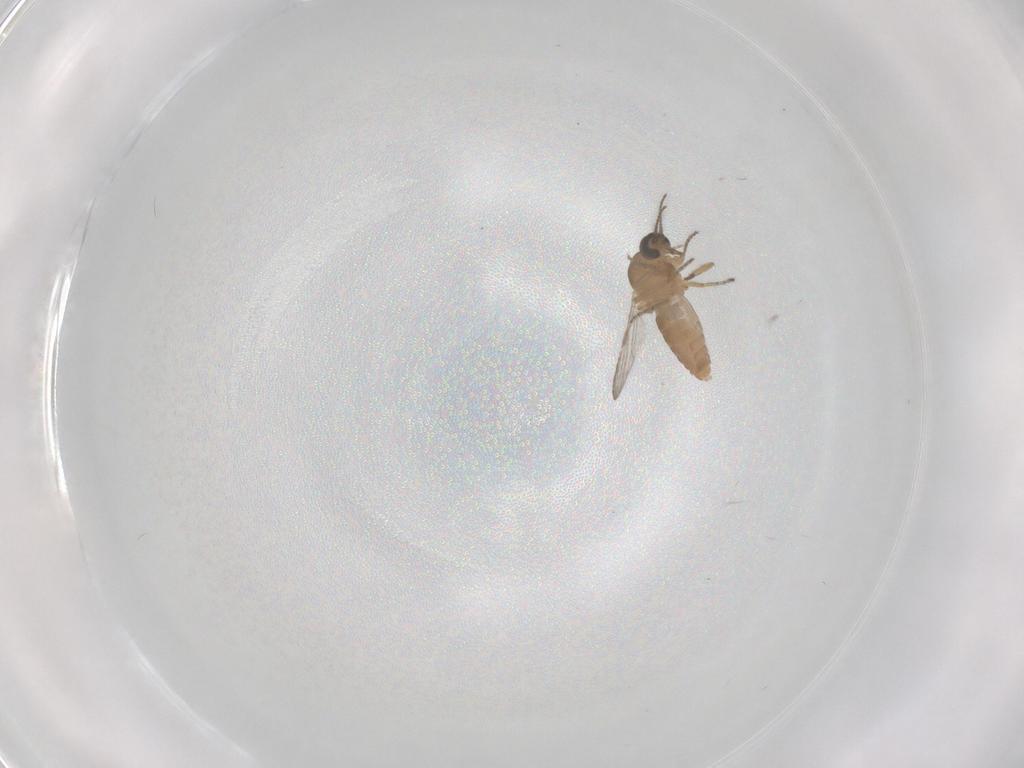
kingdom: Animalia
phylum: Arthropoda
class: Insecta
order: Diptera
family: Ceratopogonidae
